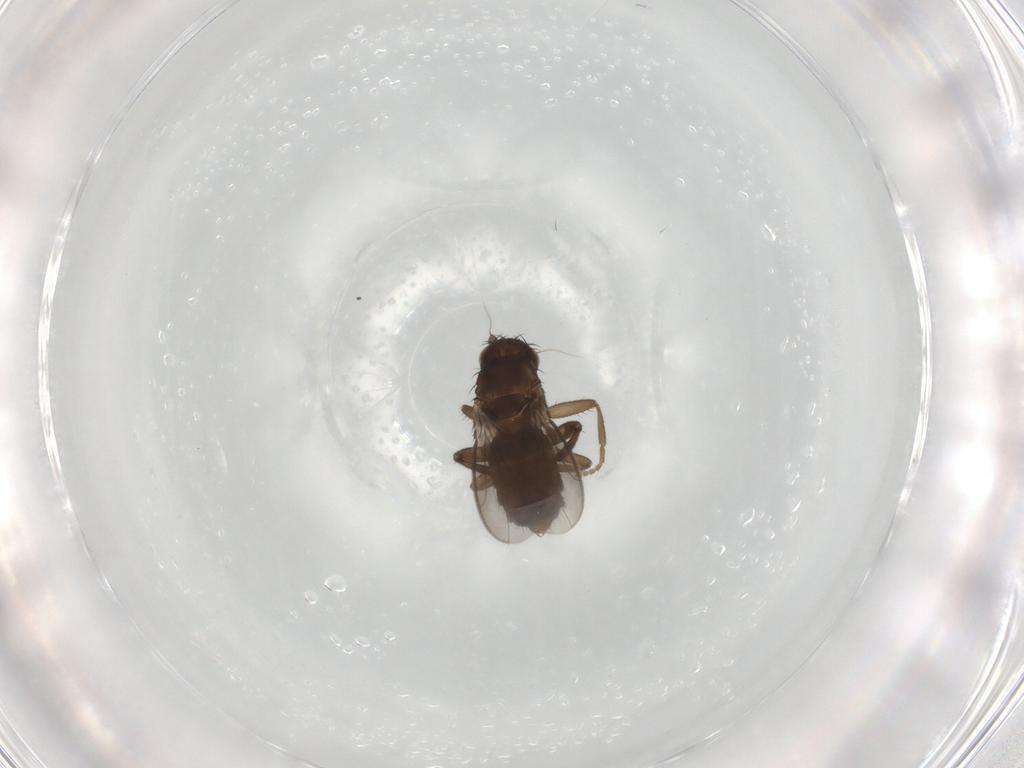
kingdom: Animalia
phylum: Arthropoda
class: Insecta
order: Diptera
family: Sphaeroceridae
